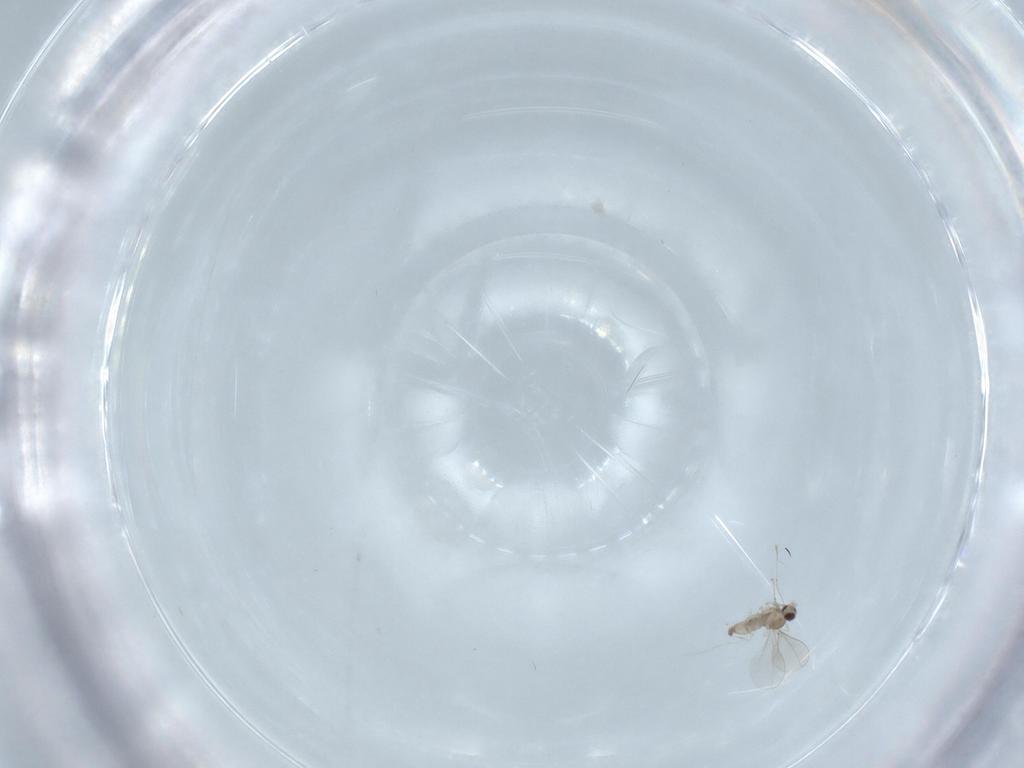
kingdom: Animalia
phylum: Arthropoda
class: Insecta
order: Diptera
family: Cecidomyiidae
